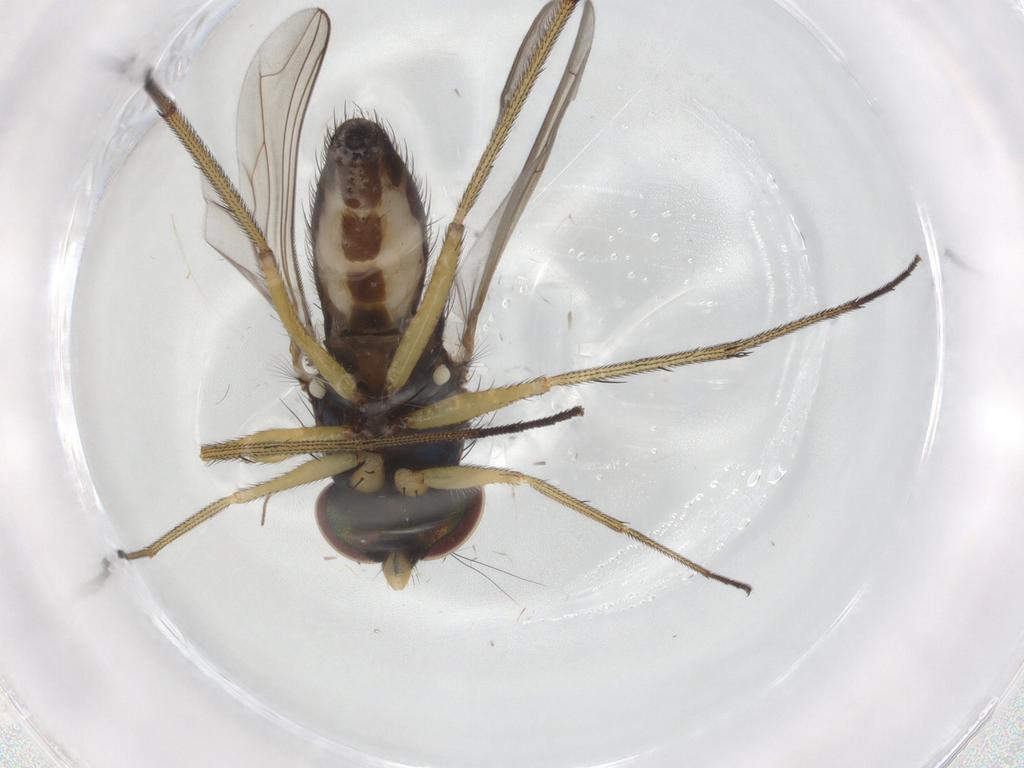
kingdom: Animalia
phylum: Arthropoda
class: Insecta
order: Diptera
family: Dolichopodidae
